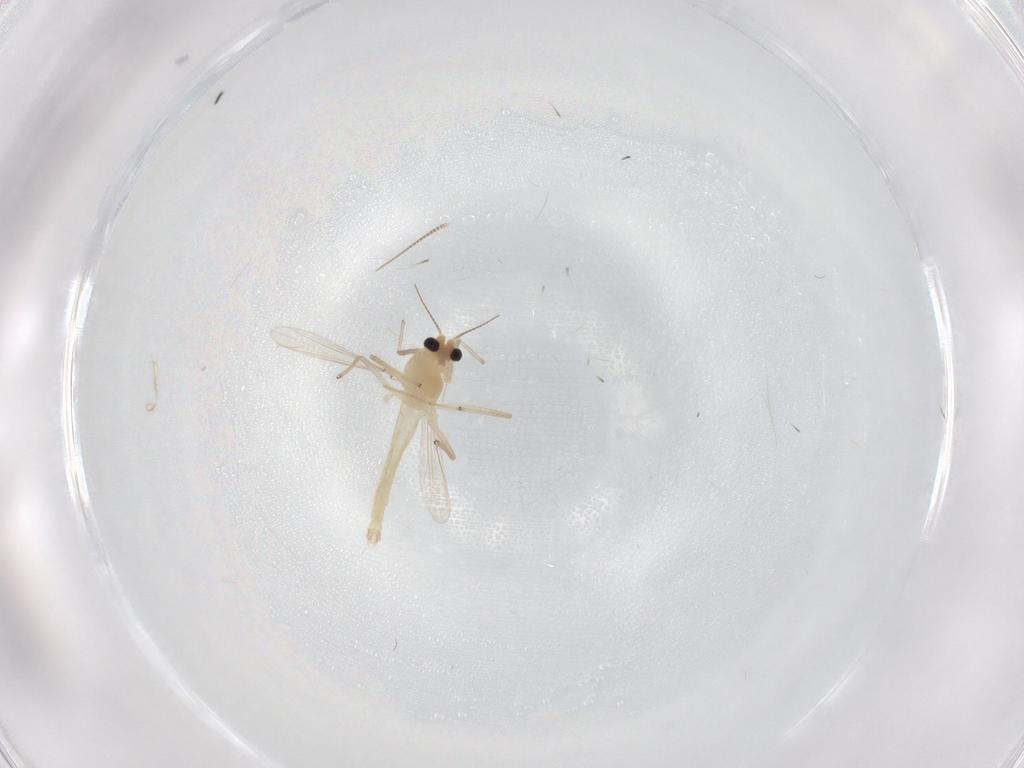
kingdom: Animalia
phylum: Arthropoda
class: Insecta
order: Diptera
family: Chironomidae
